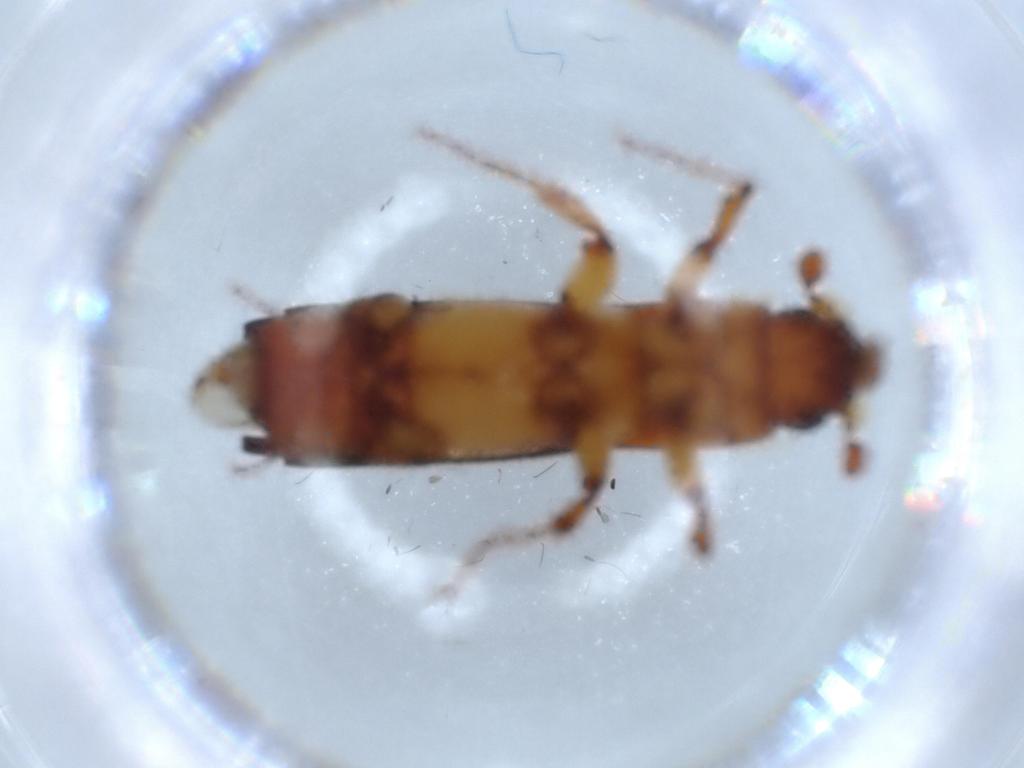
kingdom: Animalia
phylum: Arthropoda
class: Insecta
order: Coleoptera
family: Curculionidae
